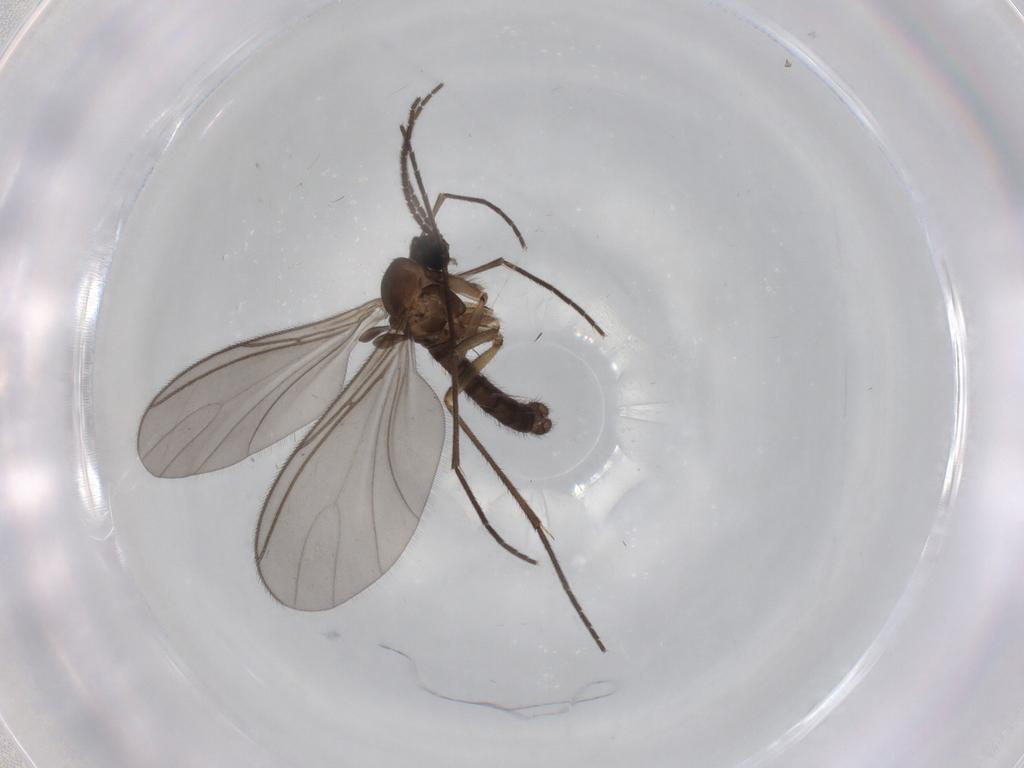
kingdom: Animalia
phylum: Arthropoda
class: Insecta
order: Diptera
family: Sciaridae
